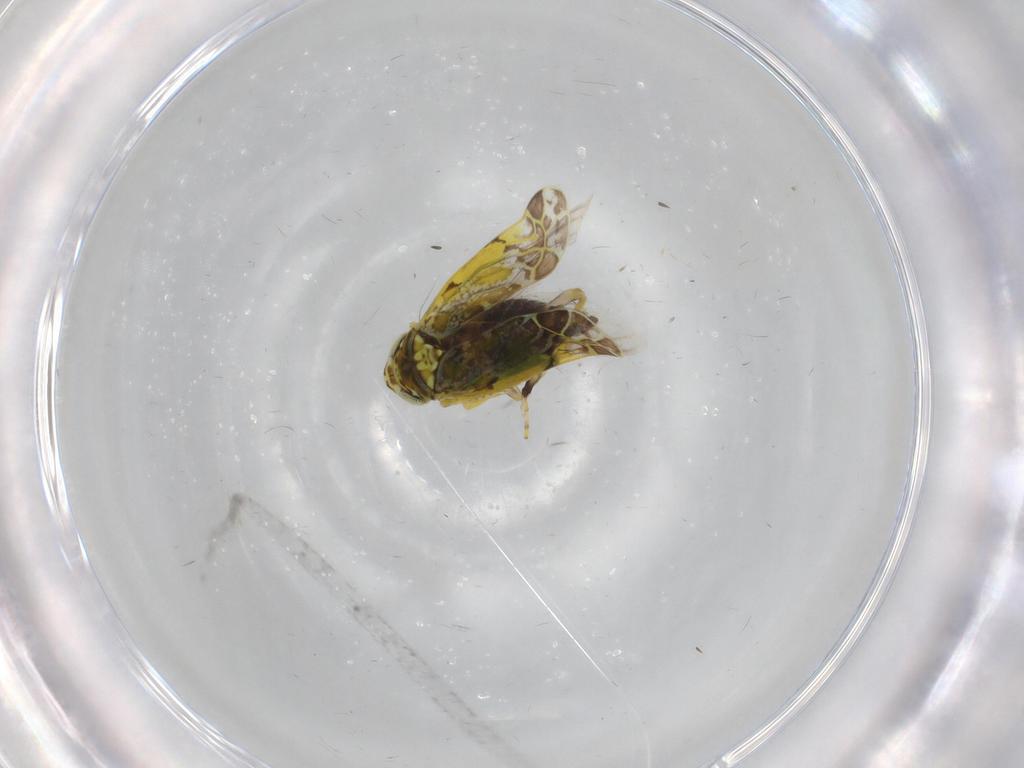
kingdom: Animalia
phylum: Arthropoda
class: Insecta
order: Hemiptera
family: Cicadellidae
